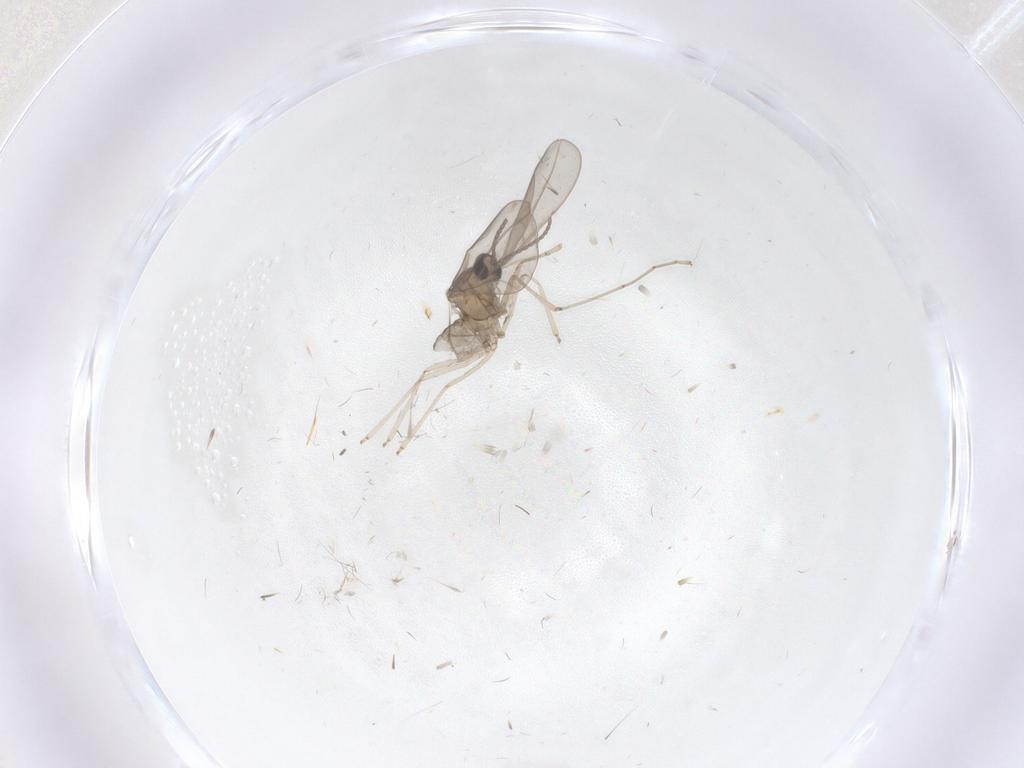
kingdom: Animalia
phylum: Arthropoda
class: Insecta
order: Diptera
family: Cecidomyiidae
